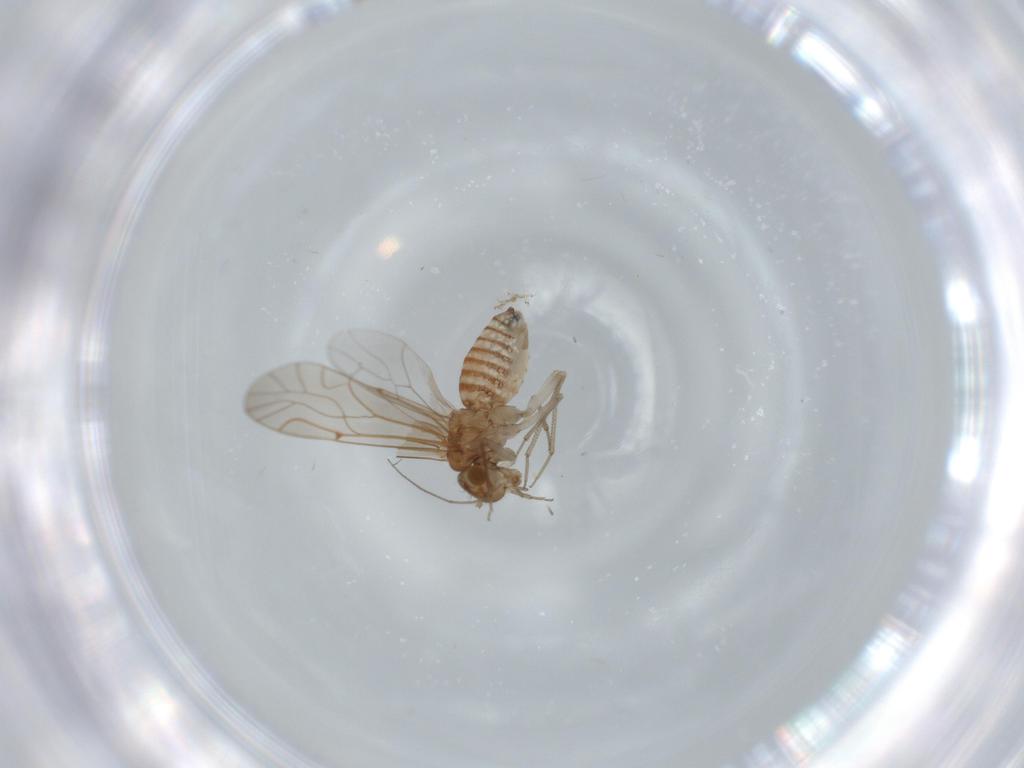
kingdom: Animalia
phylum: Arthropoda
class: Insecta
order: Psocodea
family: Lachesillidae
